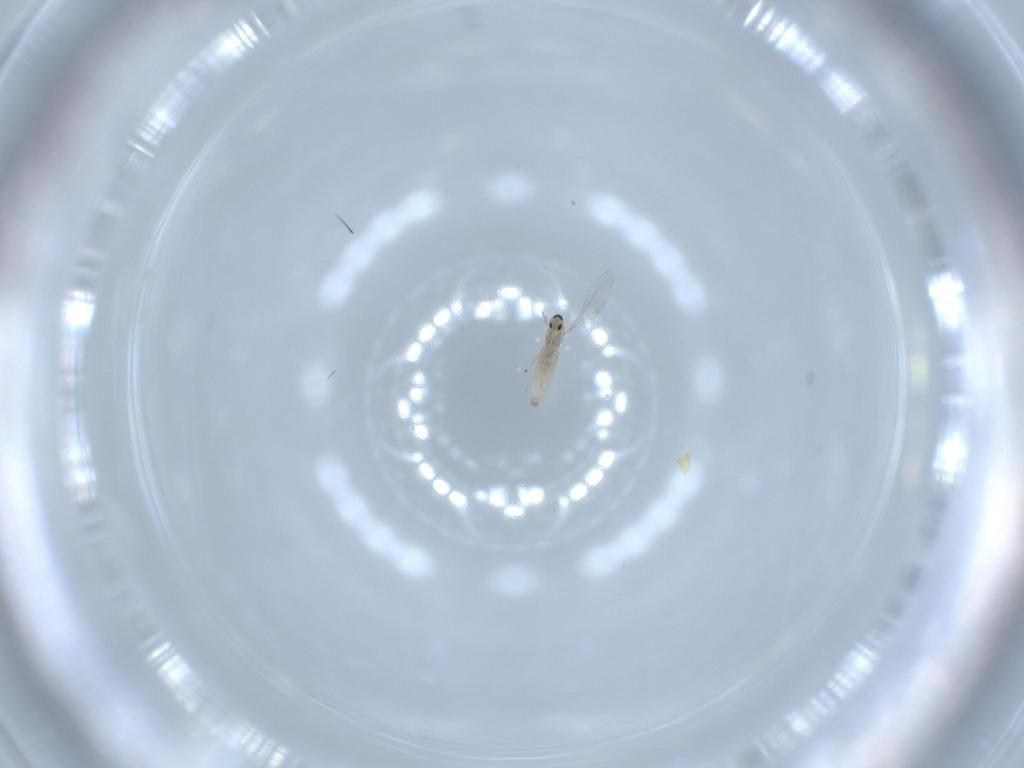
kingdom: Animalia
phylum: Arthropoda
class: Insecta
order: Diptera
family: Cecidomyiidae
